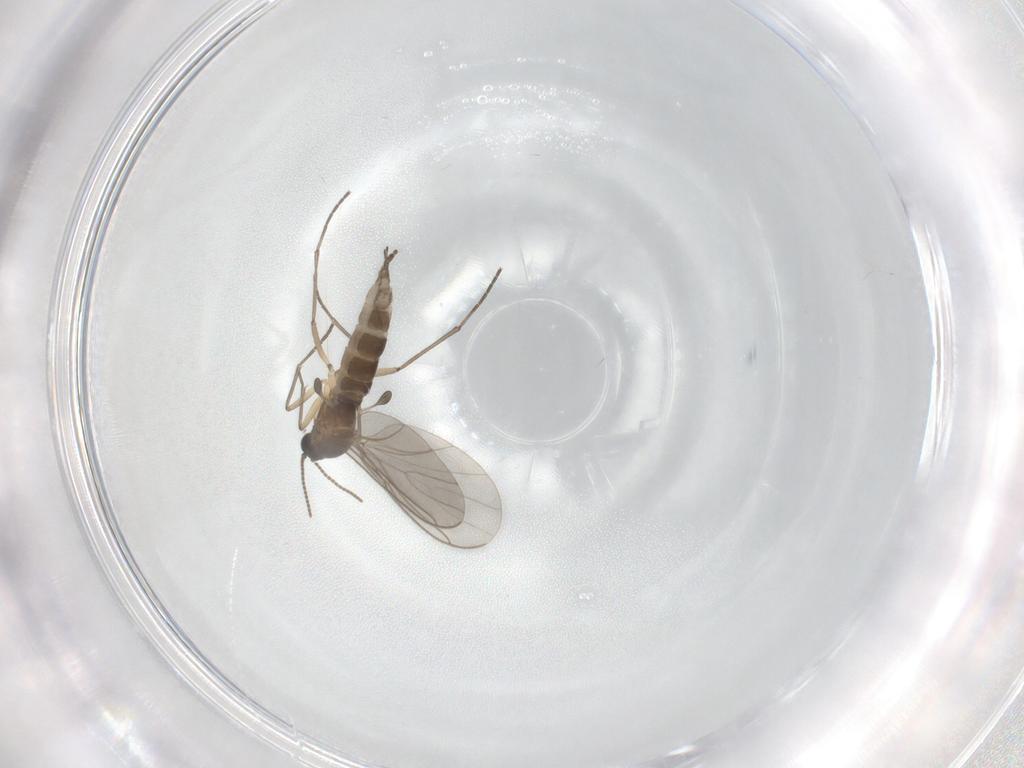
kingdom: Animalia
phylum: Arthropoda
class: Insecta
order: Diptera
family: Sciaridae
